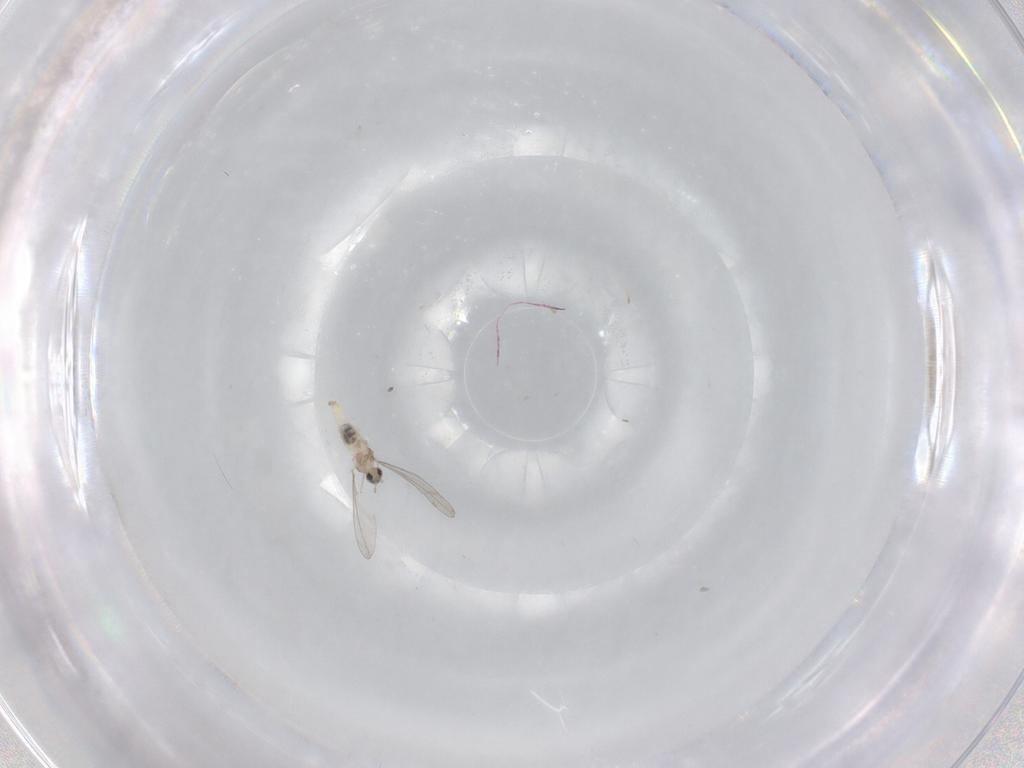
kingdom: Animalia
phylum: Arthropoda
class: Insecta
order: Diptera
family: Cecidomyiidae
